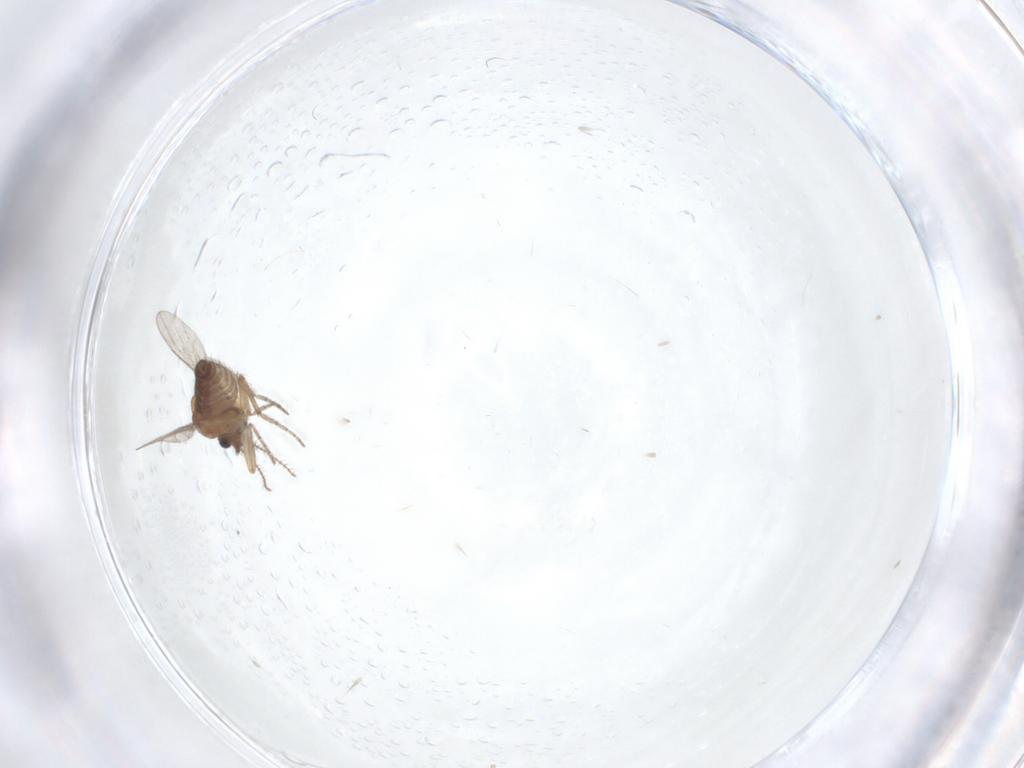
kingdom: Animalia
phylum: Arthropoda
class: Insecta
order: Diptera
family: Ceratopogonidae
